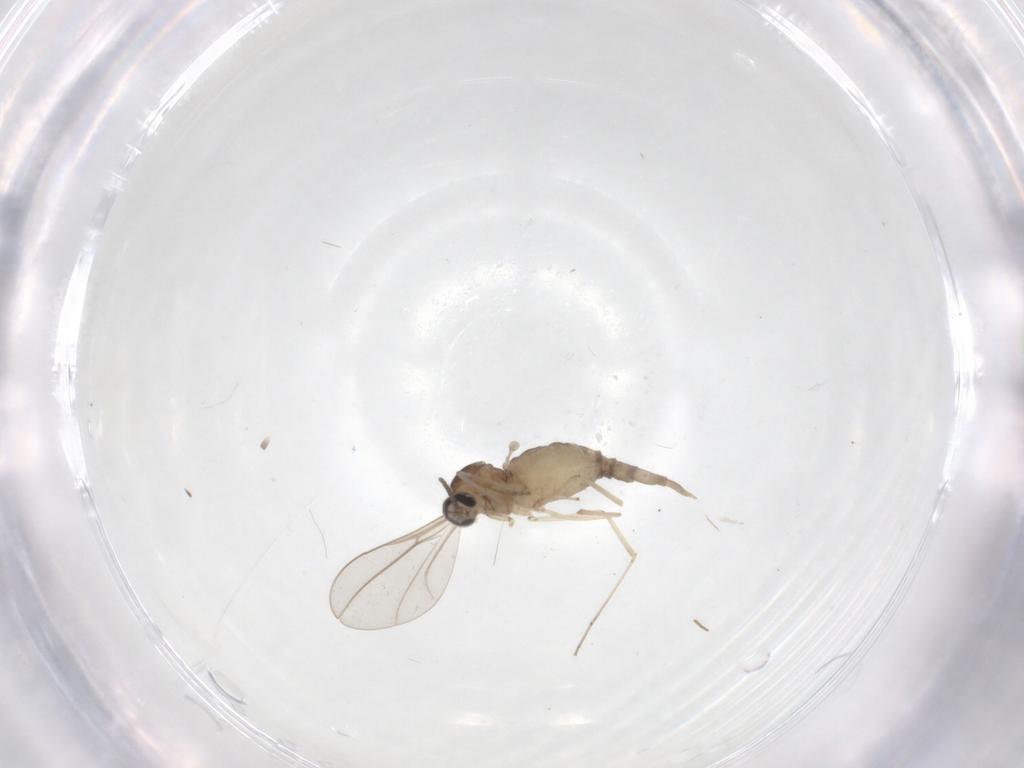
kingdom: Animalia
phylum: Arthropoda
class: Insecta
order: Diptera
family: Cecidomyiidae
